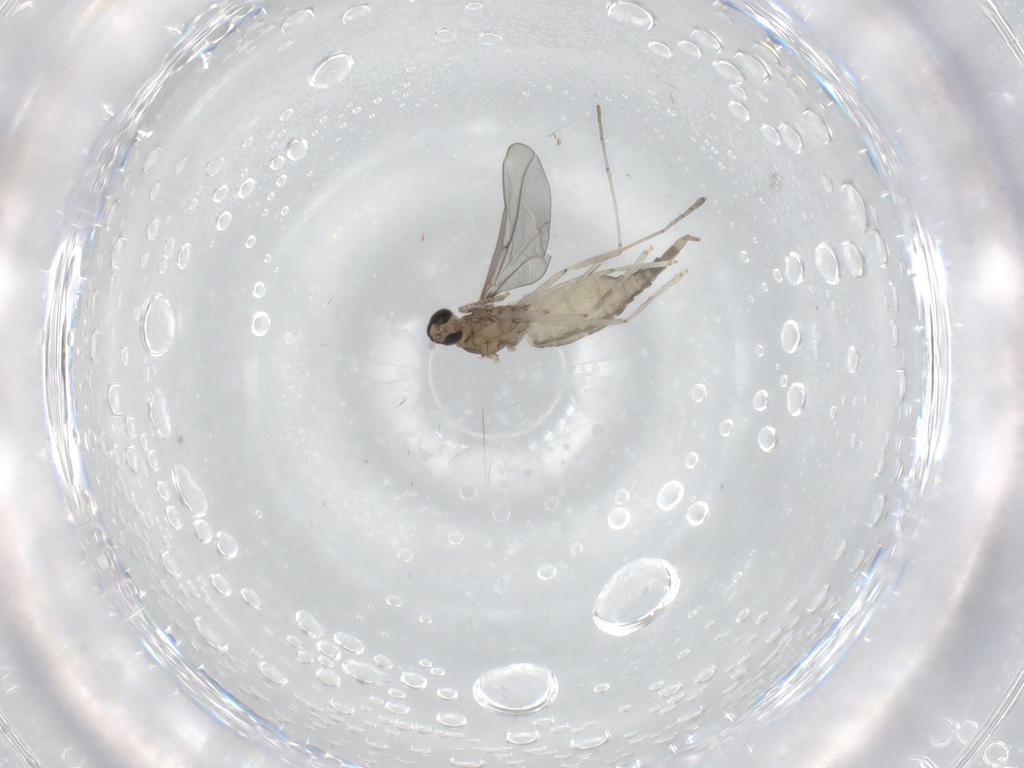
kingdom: Animalia
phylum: Arthropoda
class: Insecta
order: Diptera
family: Cecidomyiidae
